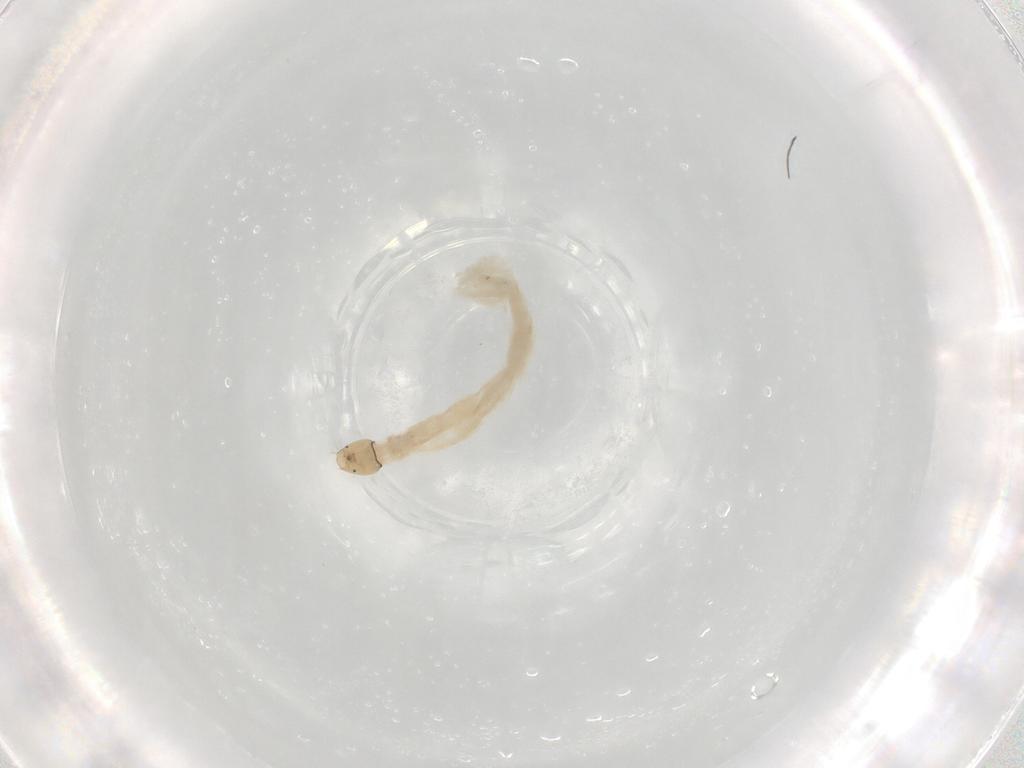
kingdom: Animalia
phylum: Arthropoda
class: Insecta
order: Diptera
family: Chironomidae
